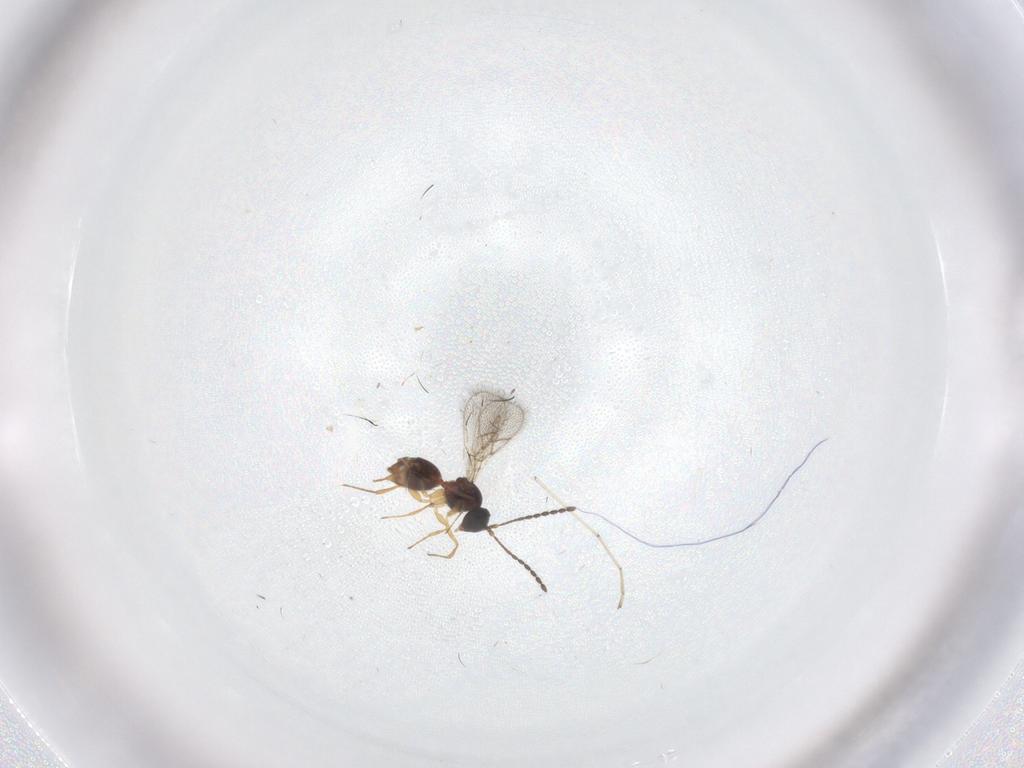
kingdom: Animalia
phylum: Arthropoda
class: Insecta
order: Hymenoptera
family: Figitidae
